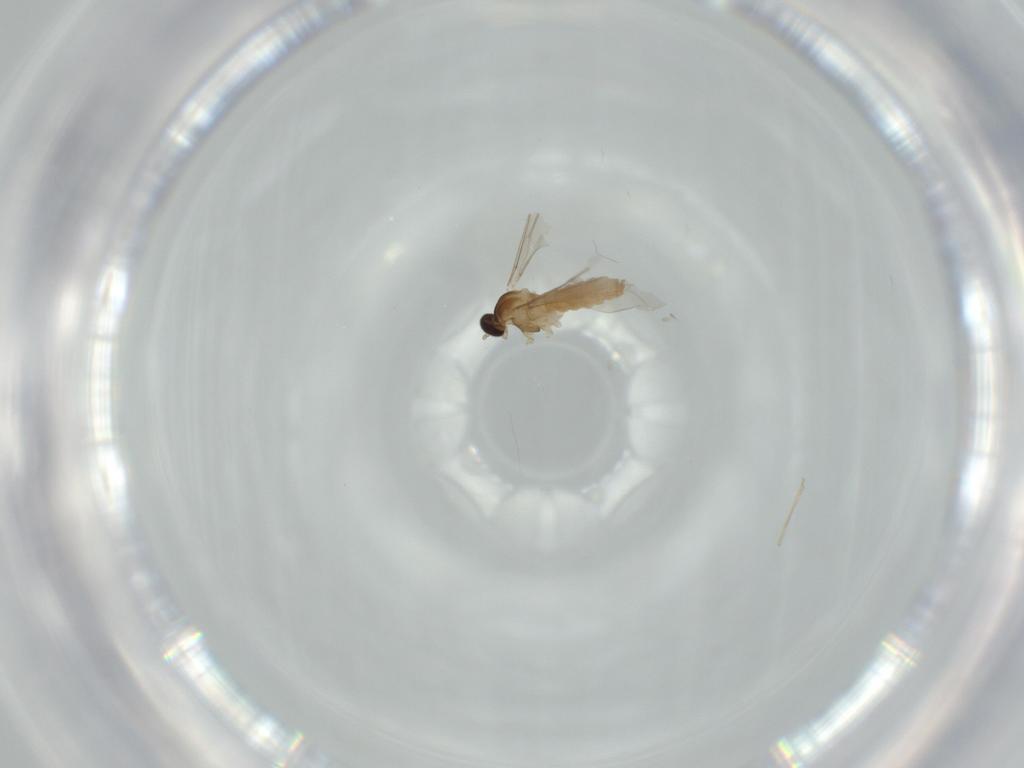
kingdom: Animalia
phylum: Arthropoda
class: Insecta
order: Diptera
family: Cecidomyiidae
